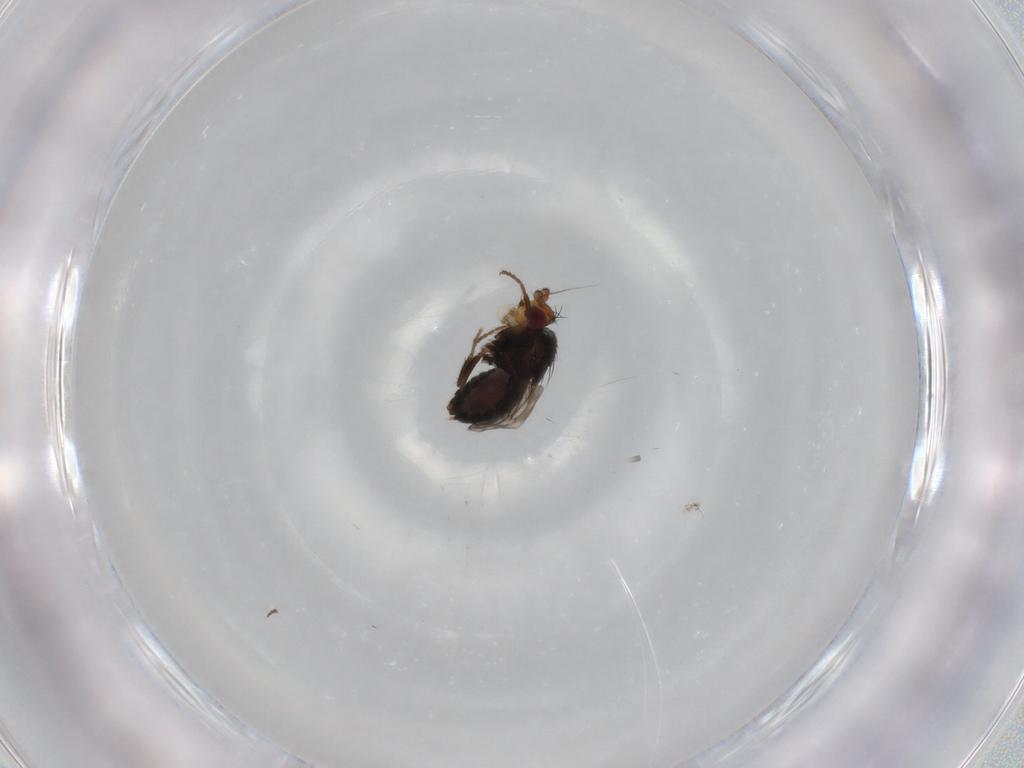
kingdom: Animalia
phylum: Arthropoda
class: Insecta
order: Diptera
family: Sphaeroceridae
